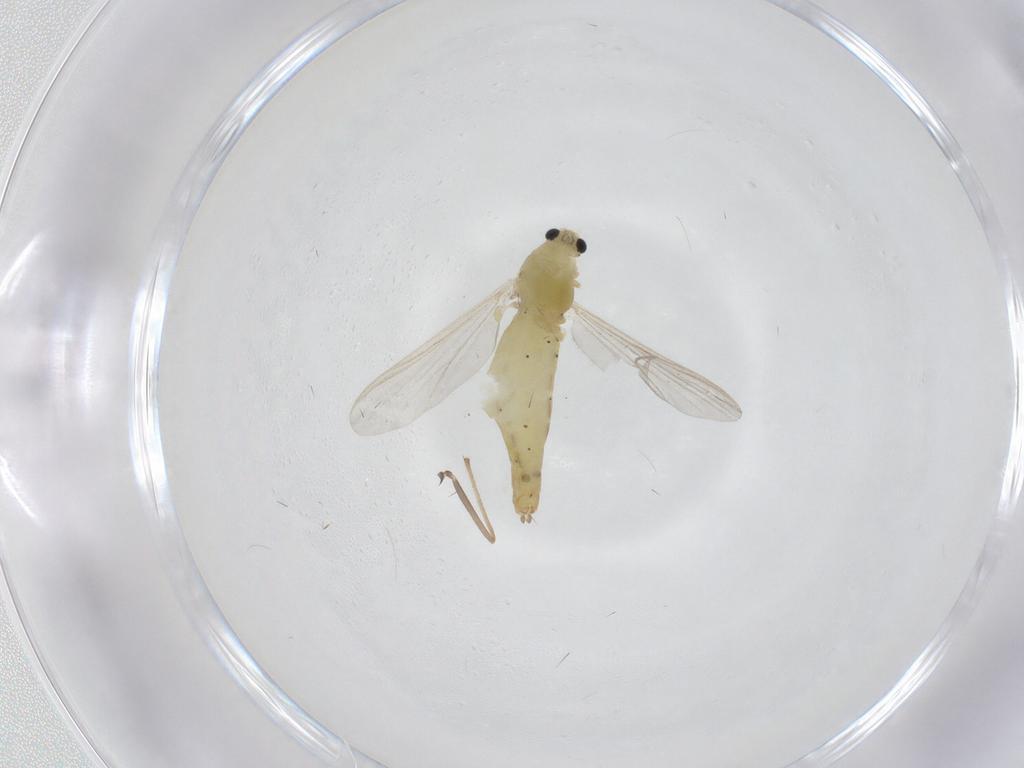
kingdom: Animalia
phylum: Arthropoda
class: Insecta
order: Diptera
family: Chironomidae
